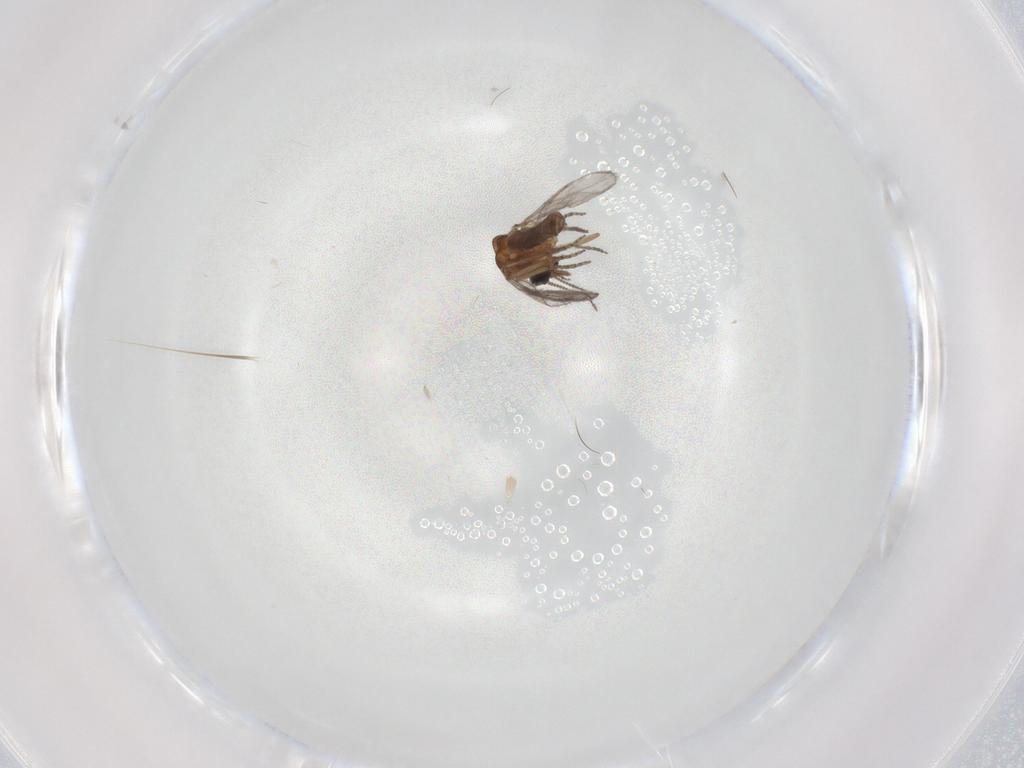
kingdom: Animalia
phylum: Arthropoda
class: Insecta
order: Diptera
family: Ceratopogonidae
